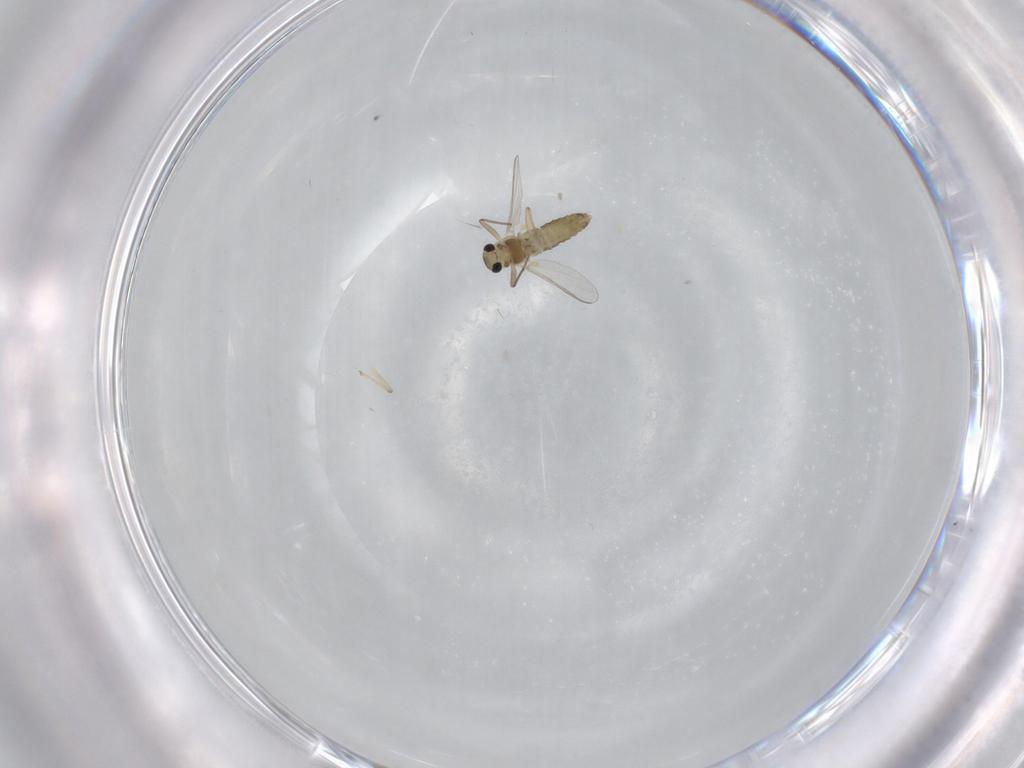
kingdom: Animalia
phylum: Arthropoda
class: Insecta
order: Diptera
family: Chironomidae
